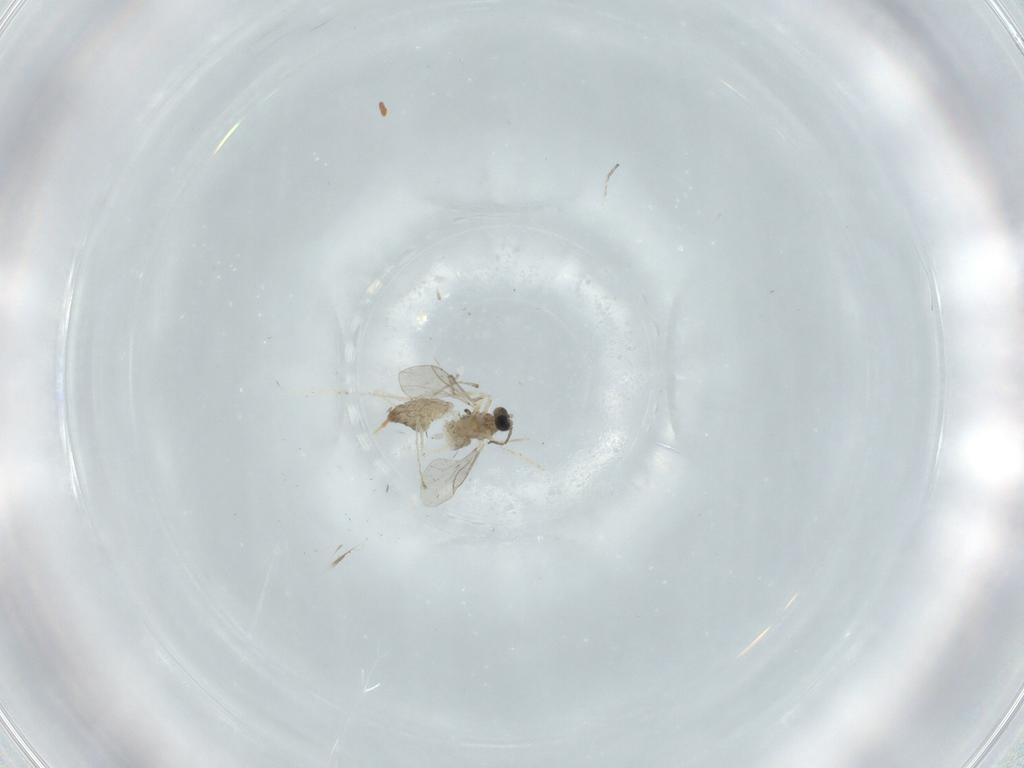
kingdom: Animalia
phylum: Arthropoda
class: Insecta
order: Diptera
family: Cecidomyiidae
